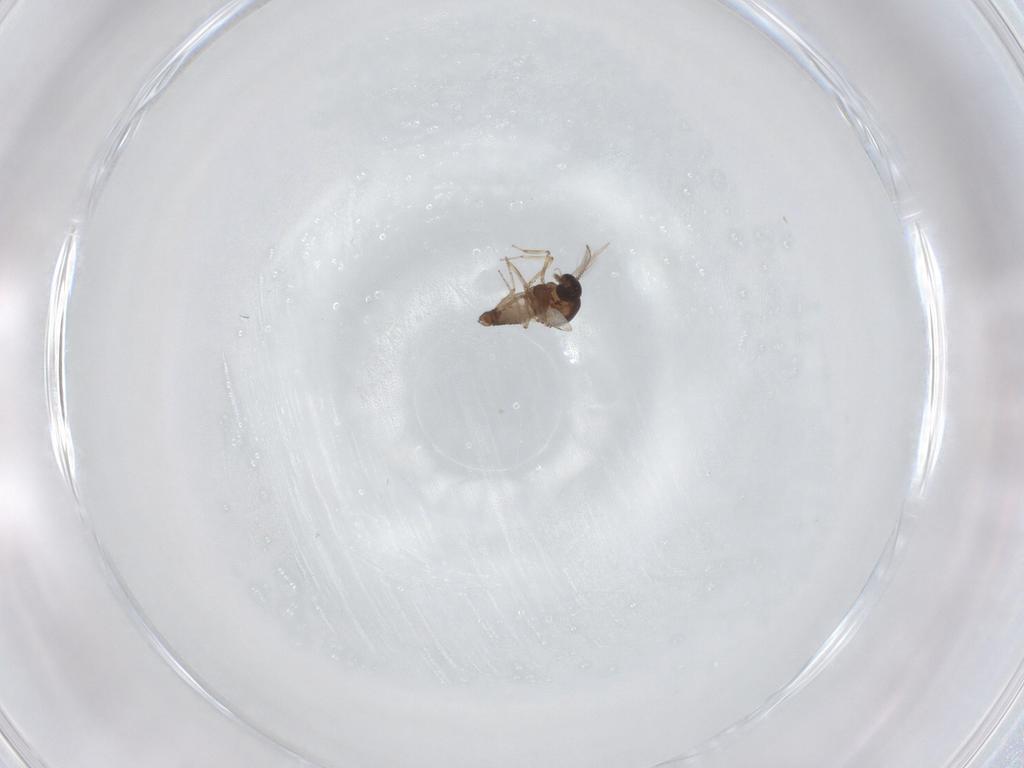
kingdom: Animalia
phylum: Arthropoda
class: Insecta
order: Diptera
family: Ceratopogonidae
